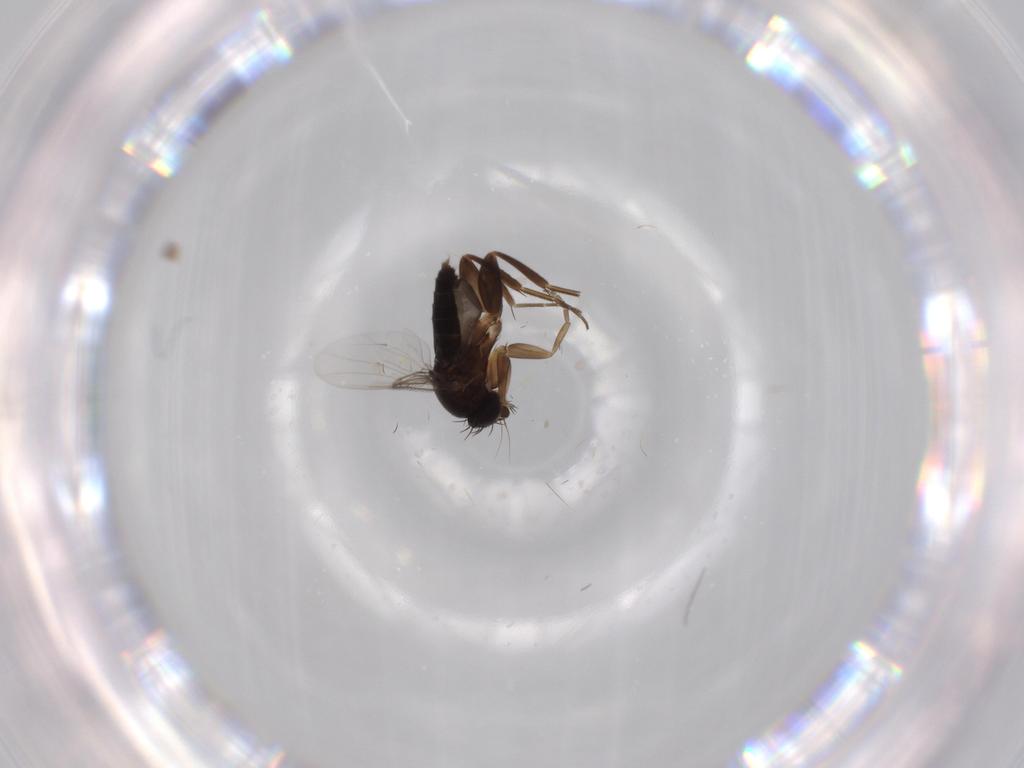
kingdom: Animalia
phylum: Arthropoda
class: Insecta
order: Diptera
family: Phoridae
